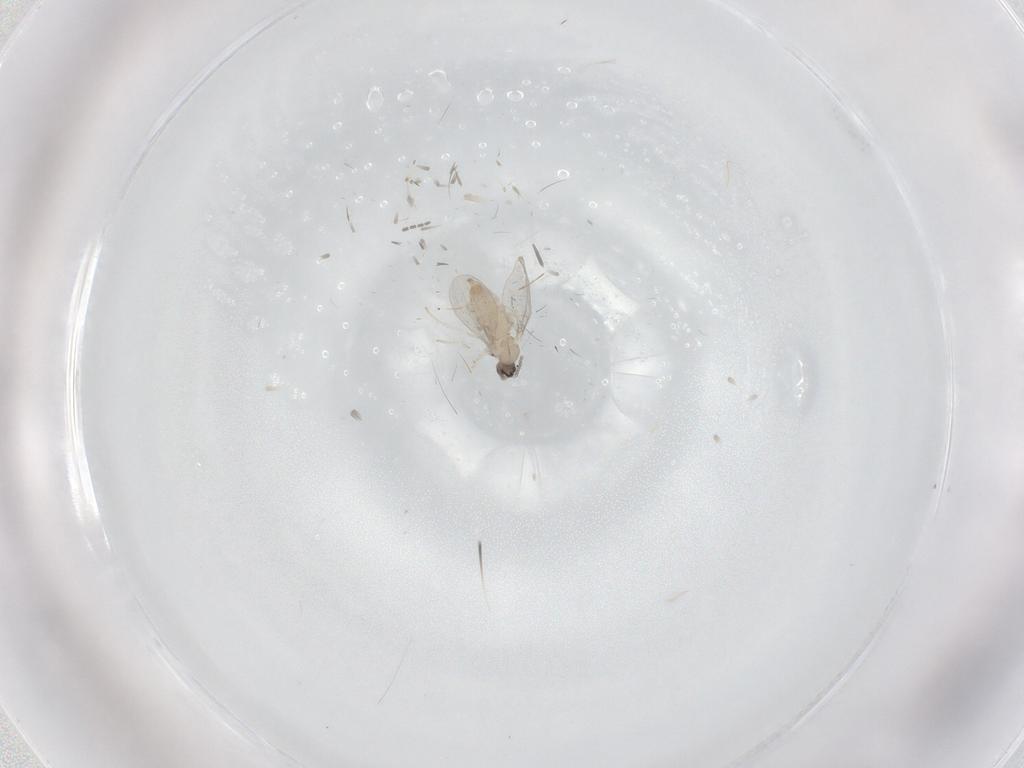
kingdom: Animalia
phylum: Arthropoda
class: Insecta
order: Diptera
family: Cecidomyiidae
